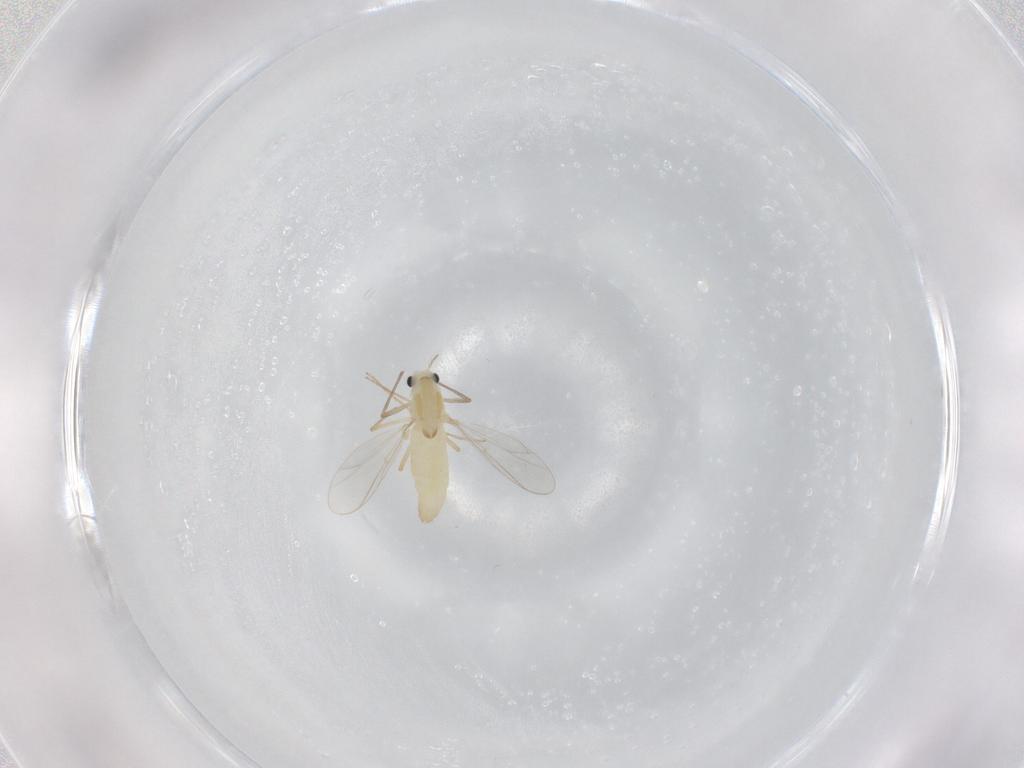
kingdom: Animalia
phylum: Arthropoda
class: Insecta
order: Diptera
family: Chironomidae
